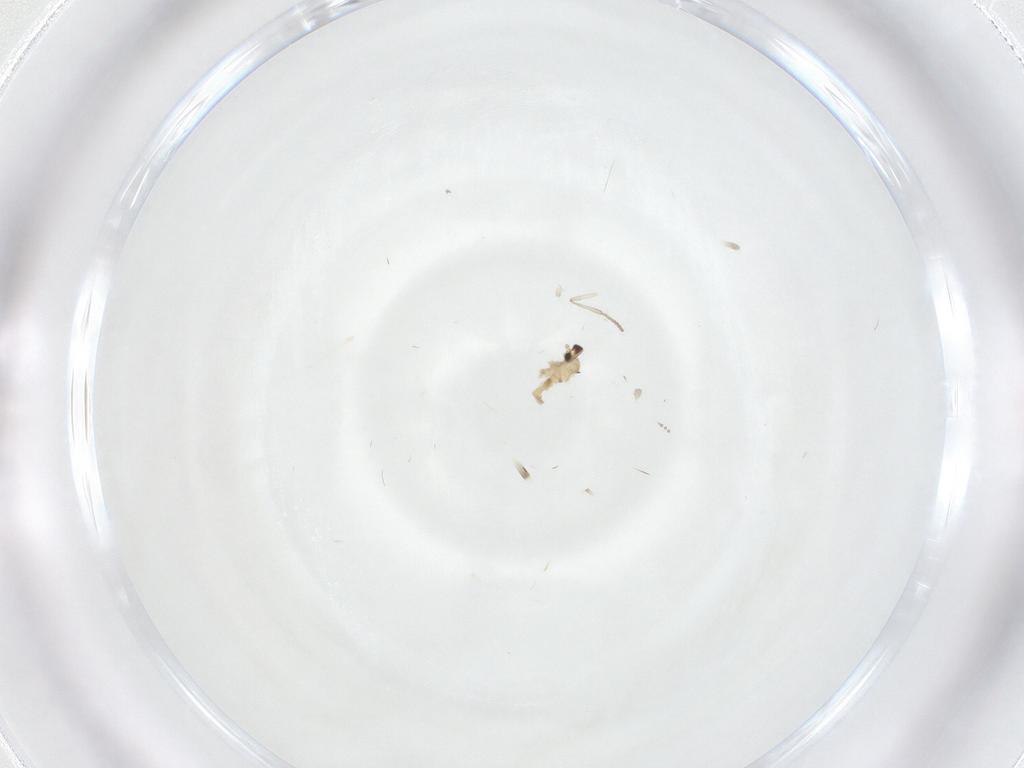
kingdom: Animalia
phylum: Arthropoda
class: Insecta
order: Diptera
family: Psychodidae
